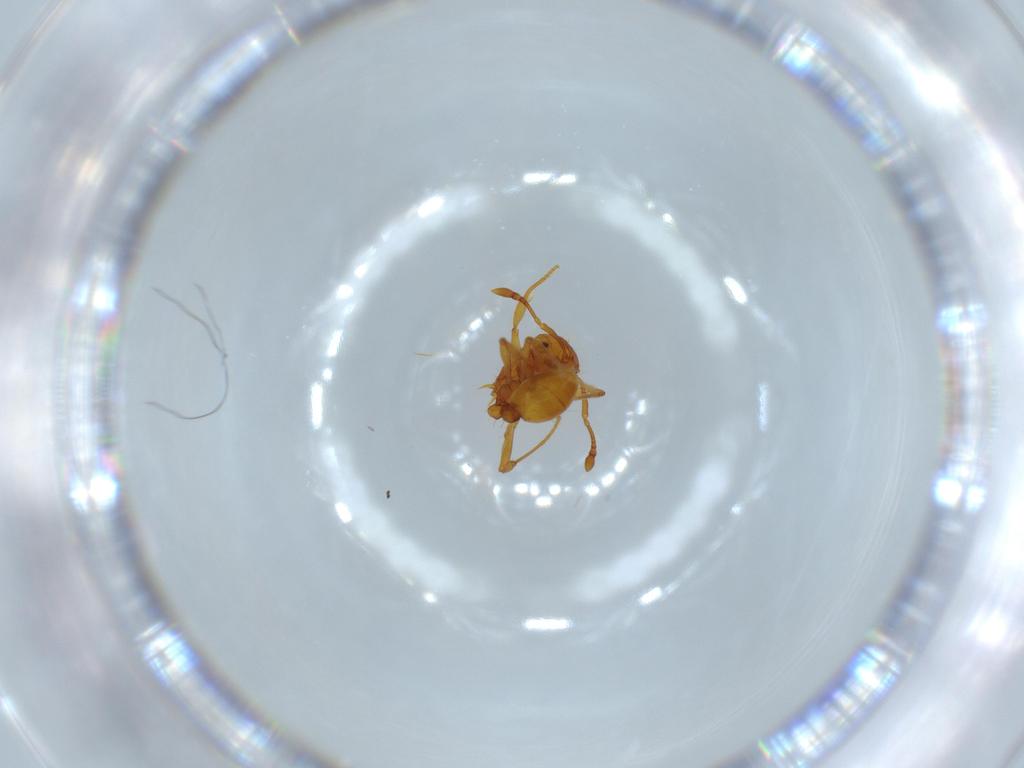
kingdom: Animalia
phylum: Arthropoda
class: Insecta
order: Hymenoptera
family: Formicidae
